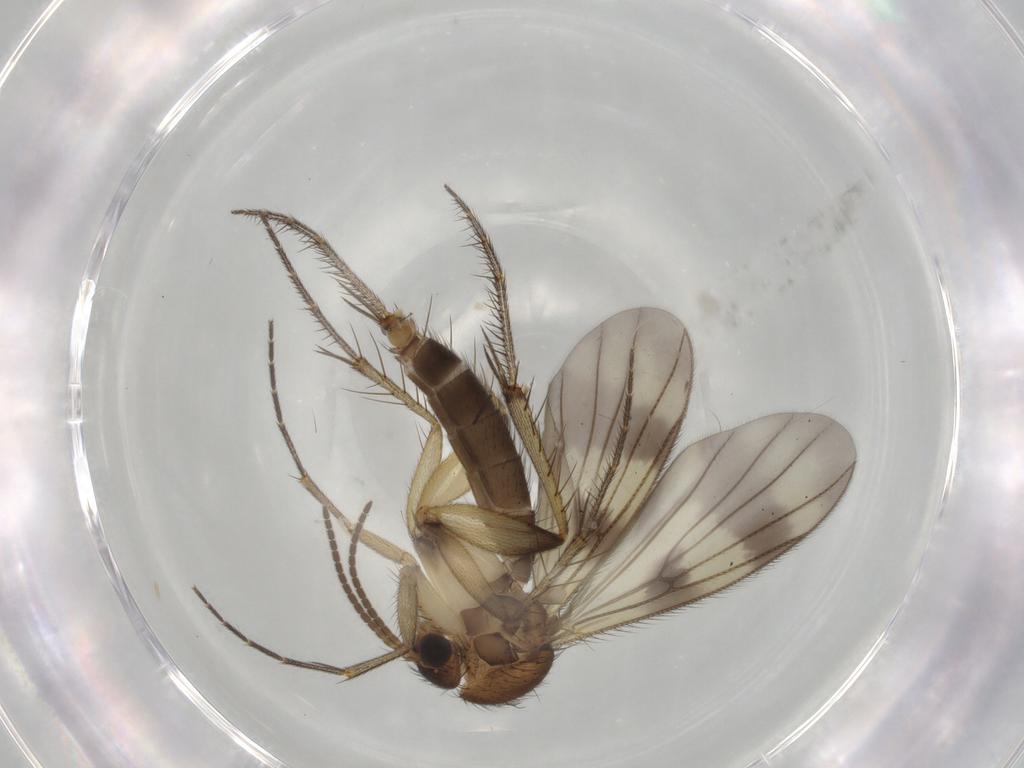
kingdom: Animalia
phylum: Arthropoda
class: Insecta
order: Diptera
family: Mycetophilidae
